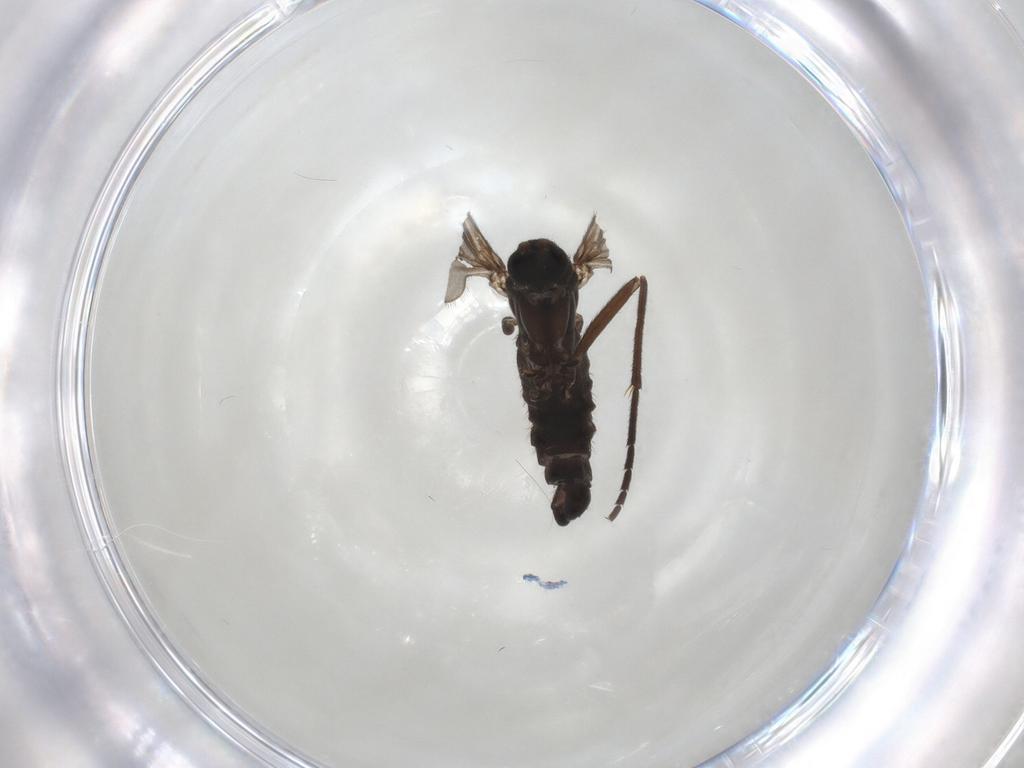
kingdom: Animalia
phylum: Arthropoda
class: Insecta
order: Diptera
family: Sciaridae
